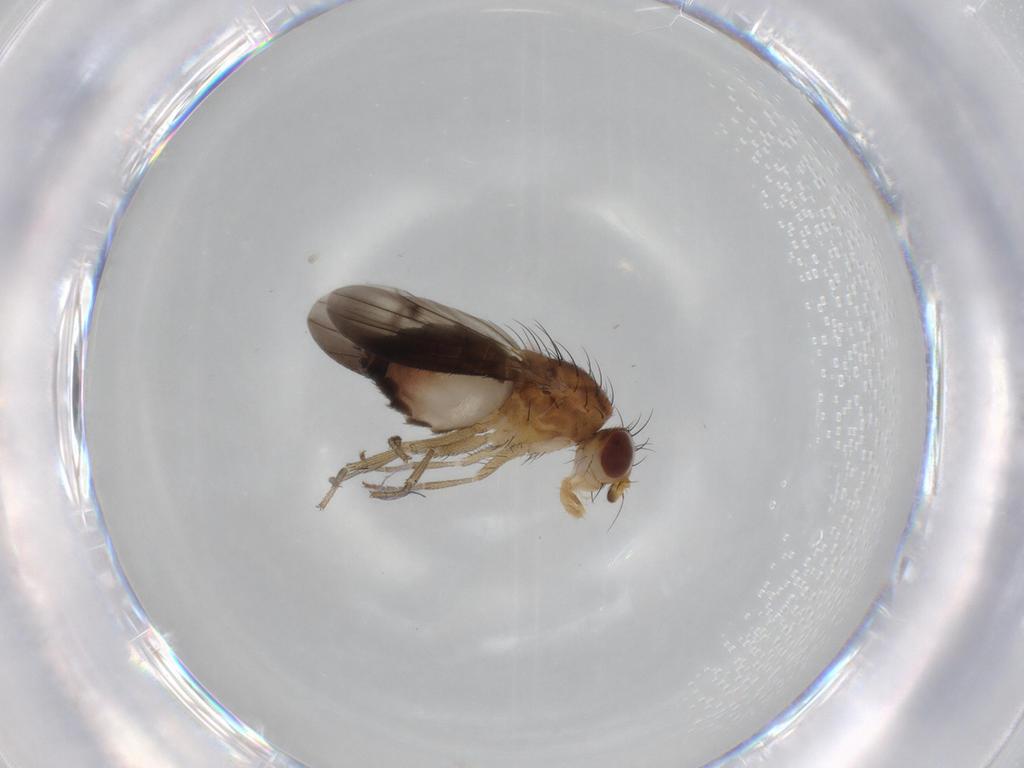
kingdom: Animalia
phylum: Arthropoda
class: Insecta
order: Diptera
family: Heleomyzidae
